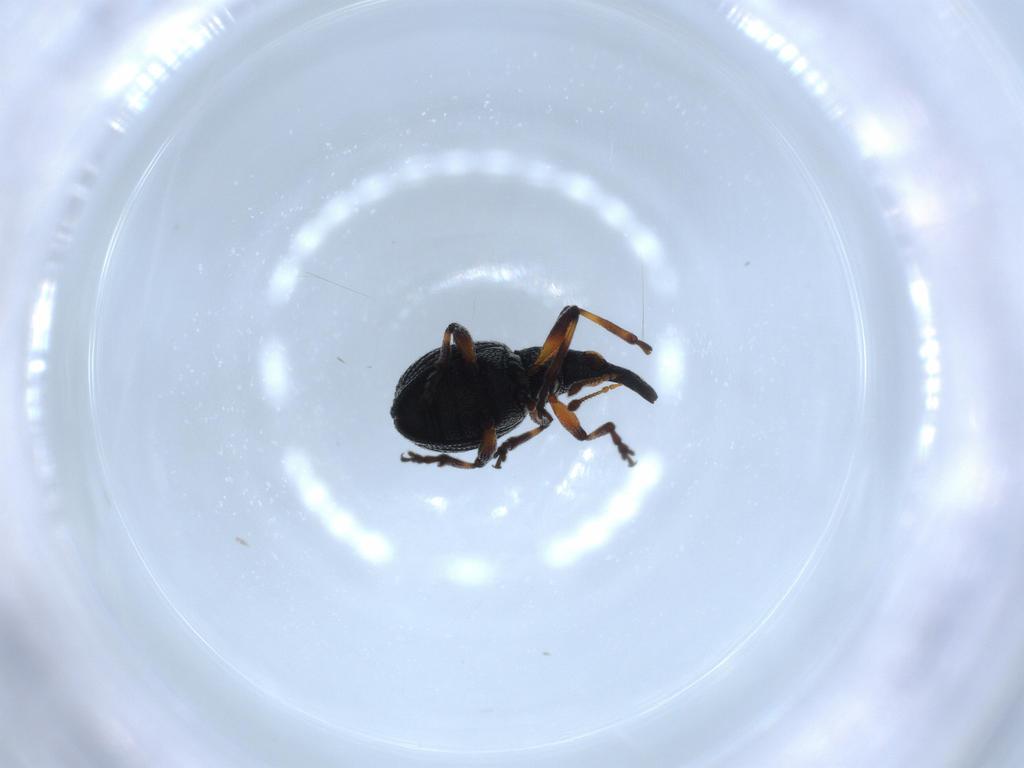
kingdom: Animalia
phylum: Arthropoda
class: Insecta
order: Coleoptera
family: Brentidae
